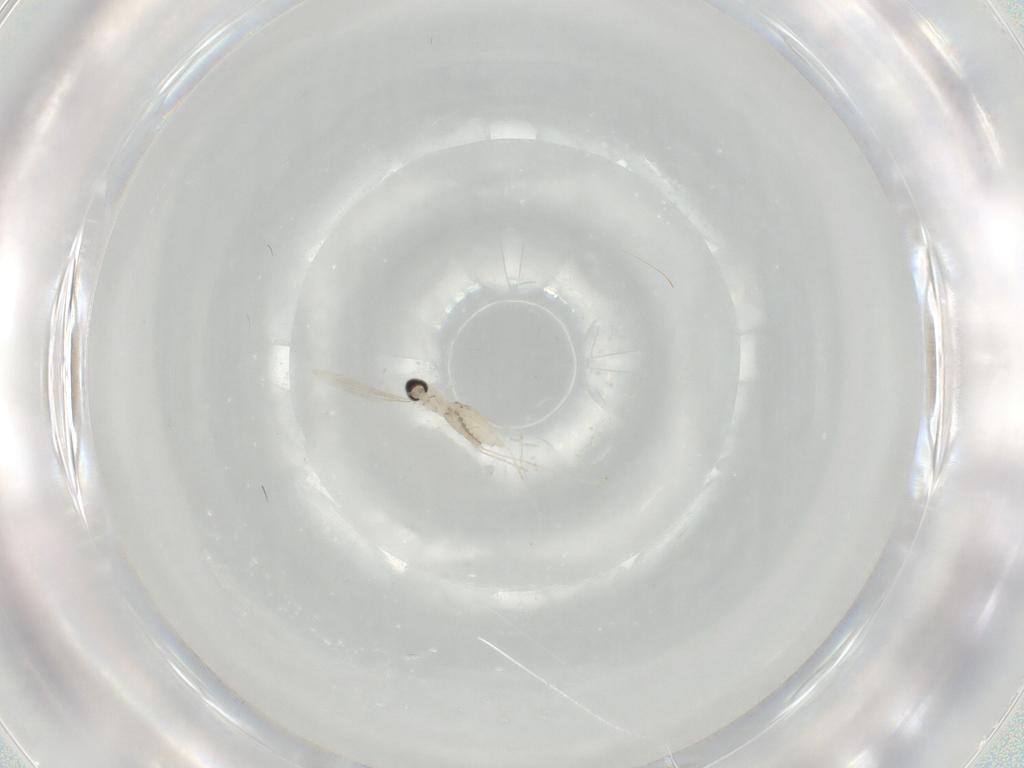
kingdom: Animalia
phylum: Arthropoda
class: Insecta
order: Diptera
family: Cecidomyiidae
